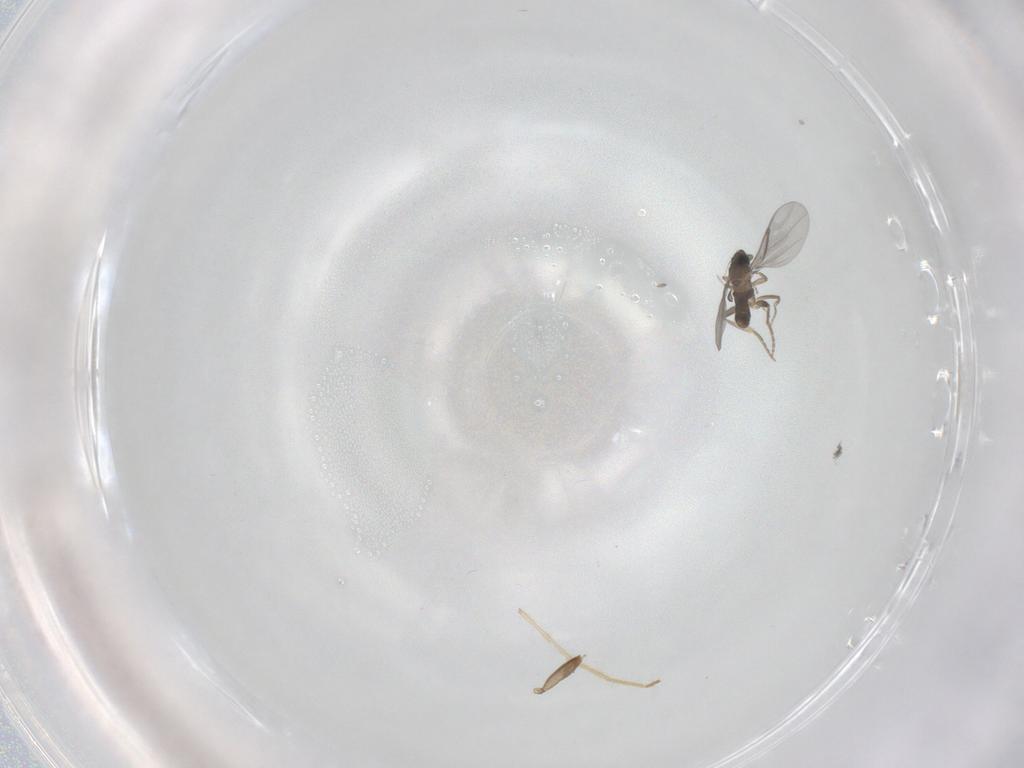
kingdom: Animalia
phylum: Arthropoda
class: Insecta
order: Diptera
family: Chironomidae
